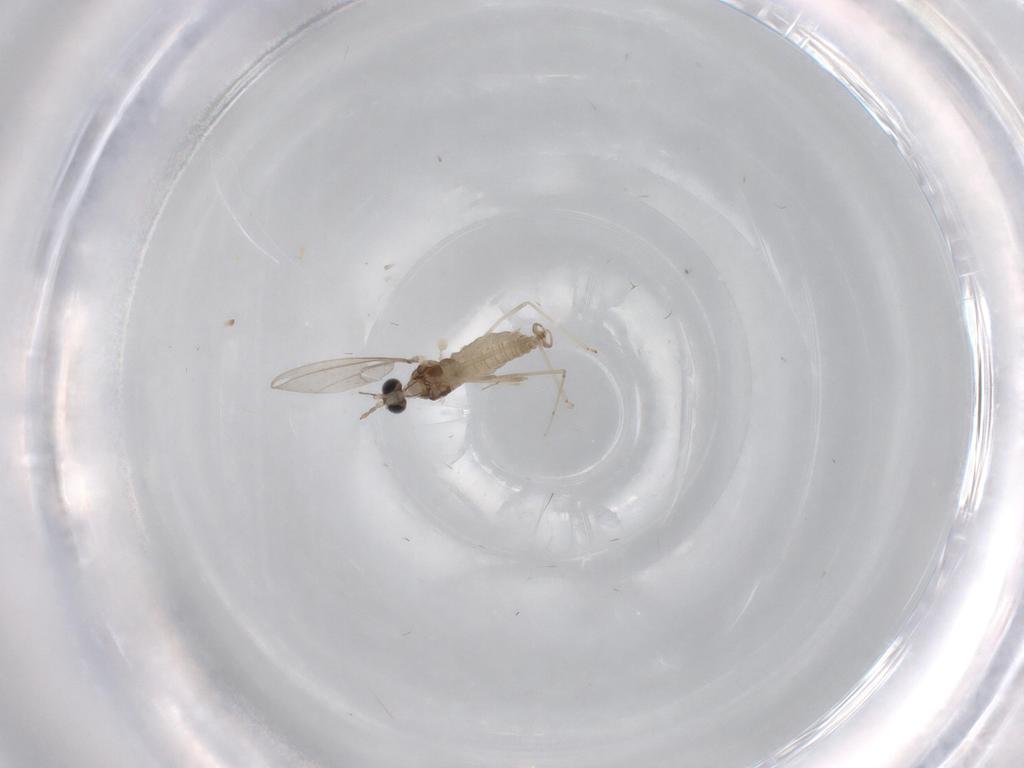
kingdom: Animalia
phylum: Arthropoda
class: Insecta
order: Diptera
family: Cecidomyiidae
